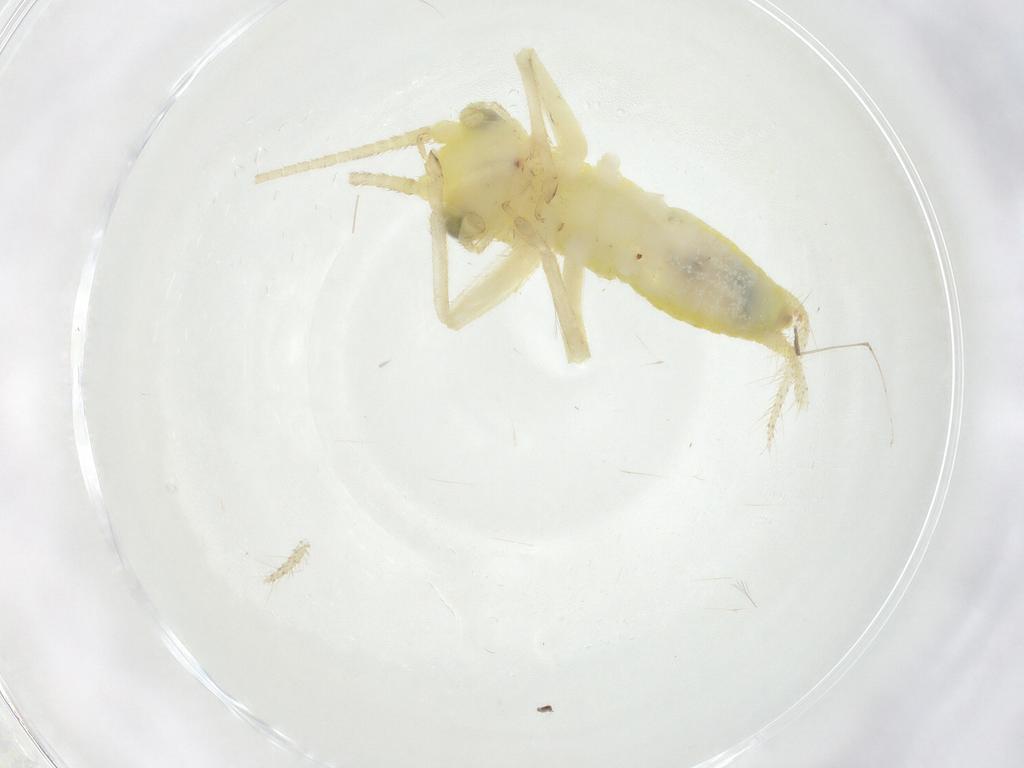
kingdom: Animalia
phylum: Arthropoda
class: Insecta
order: Orthoptera
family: Trigonidiidae
